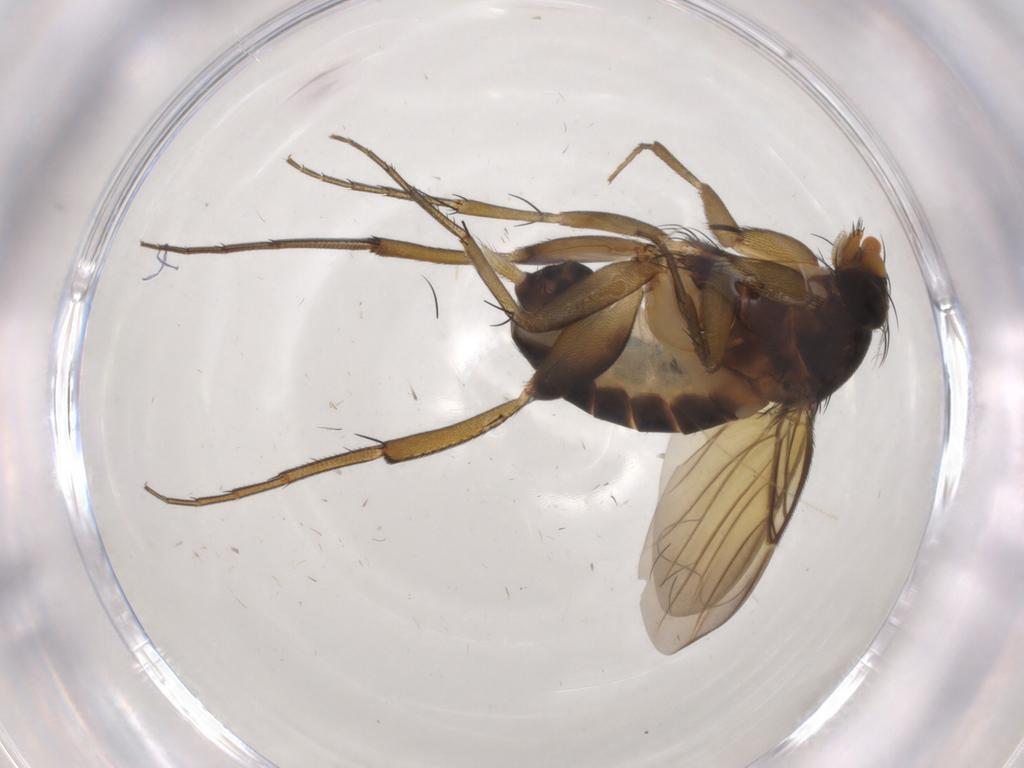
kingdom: Animalia
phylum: Arthropoda
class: Insecta
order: Diptera
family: Phoridae
